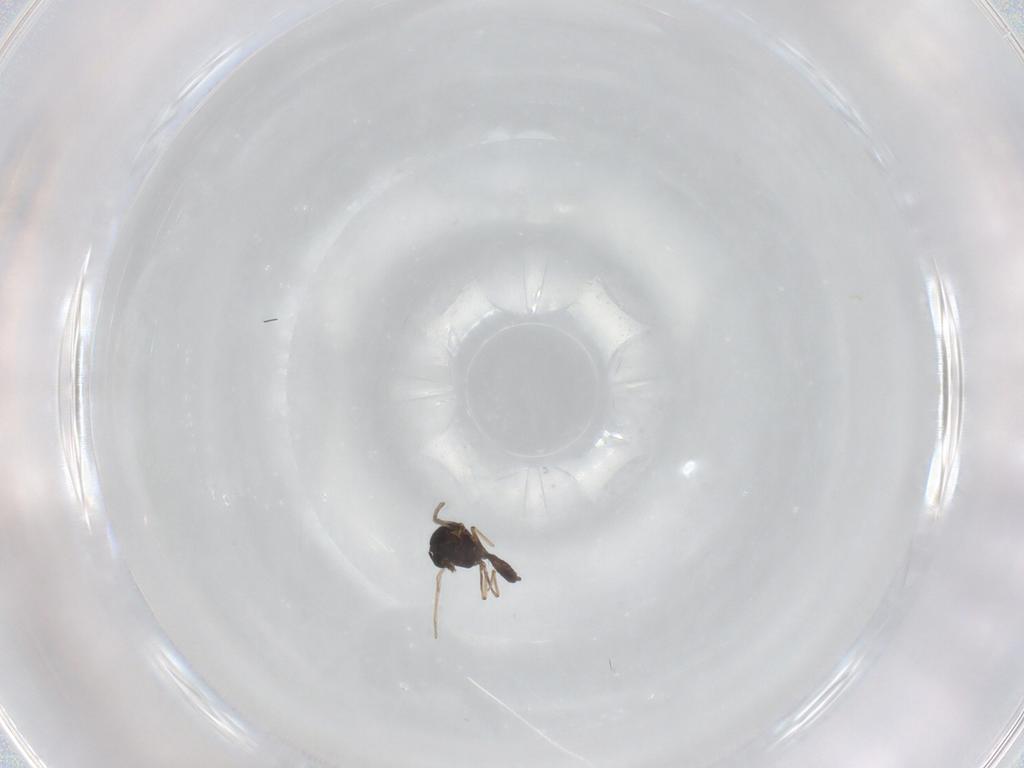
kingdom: Animalia
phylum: Arthropoda
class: Insecta
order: Diptera
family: Ceratopogonidae
